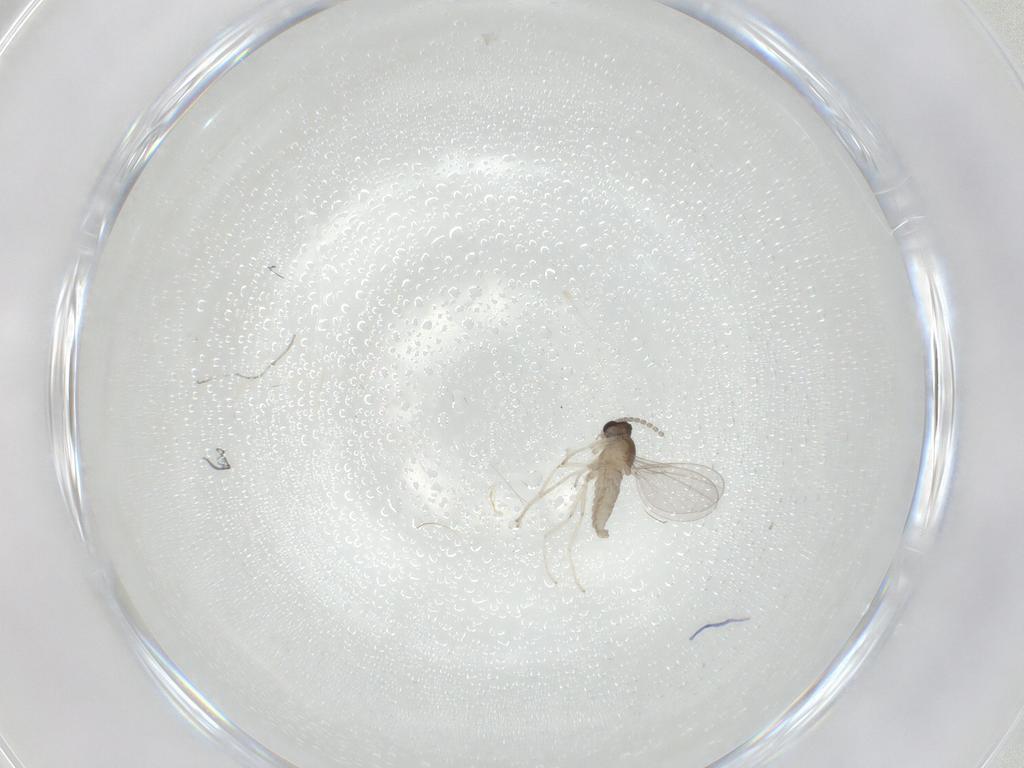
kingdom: Animalia
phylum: Arthropoda
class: Insecta
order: Diptera
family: Cecidomyiidae
